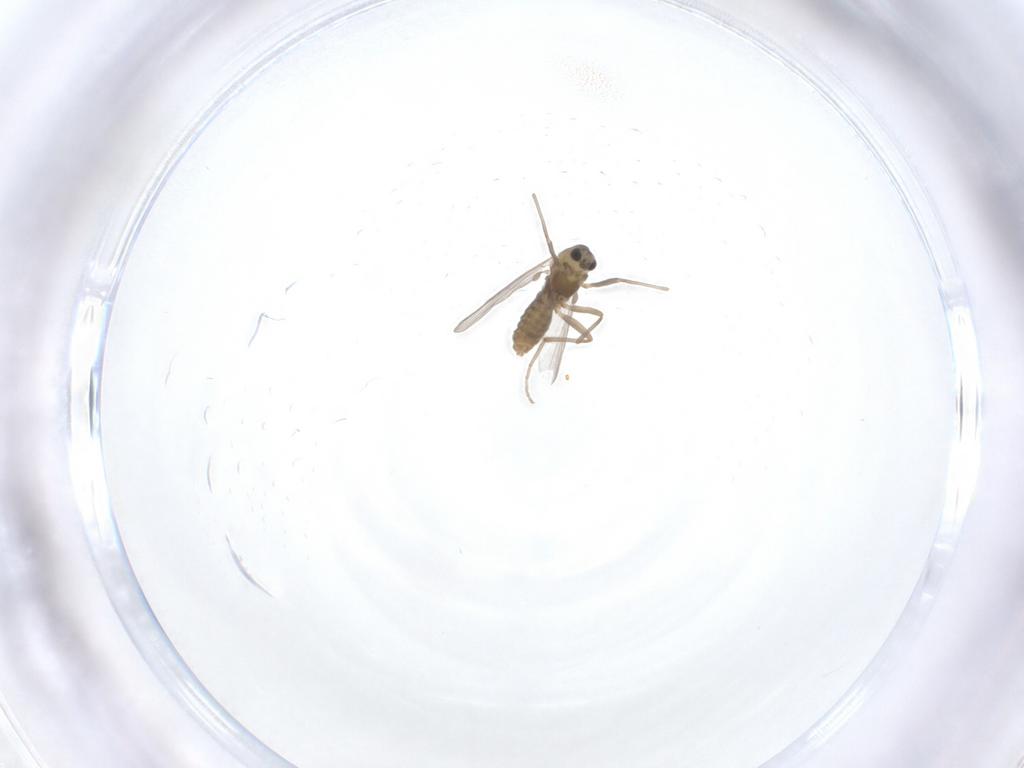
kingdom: Animalia
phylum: Arthropoda
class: Insecta
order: Diptera
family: Chironomidae
